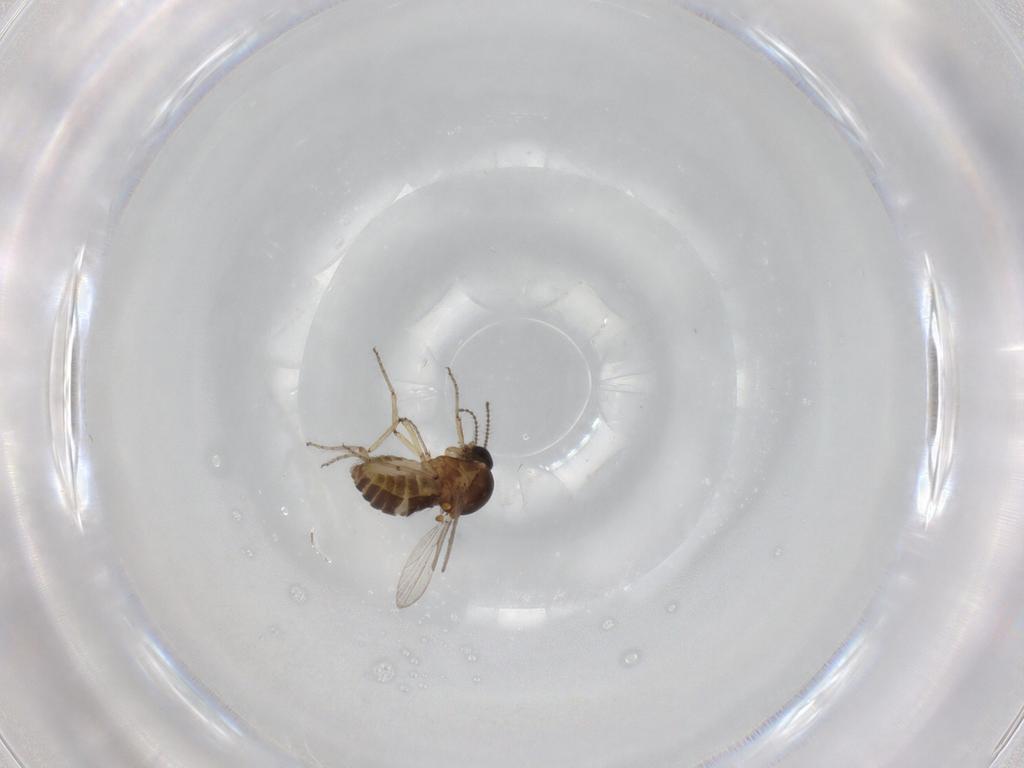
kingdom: Animalia
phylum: Arthropoda
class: Insecta
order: Diptera
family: Ceratopogonidae
